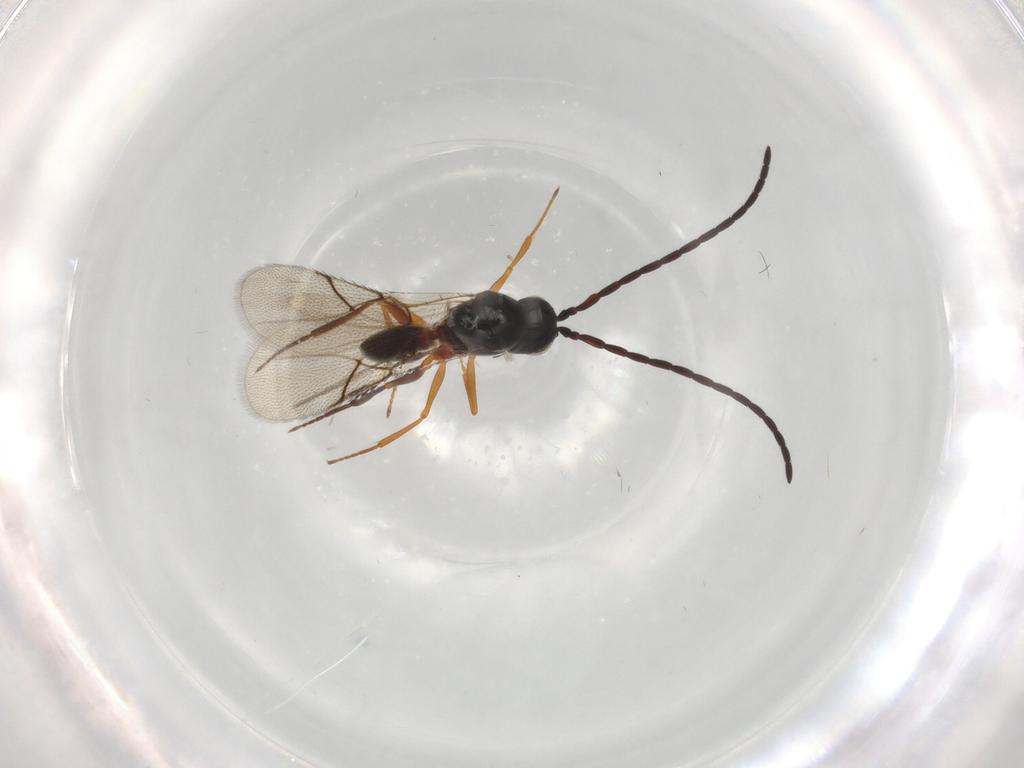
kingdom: Animalia
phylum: Arthropoda
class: Insecta
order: Hymenoptera
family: Figitidae
